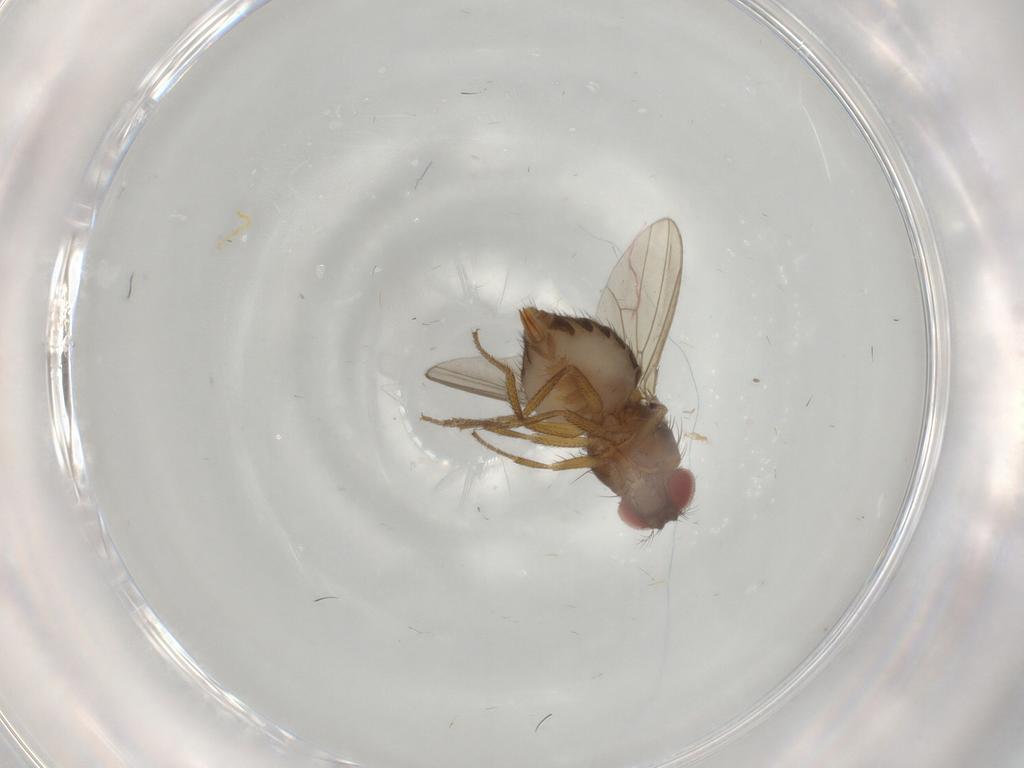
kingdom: Animalia
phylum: Arthropoda
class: Insecta
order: Diptera
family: Drosophilidae
